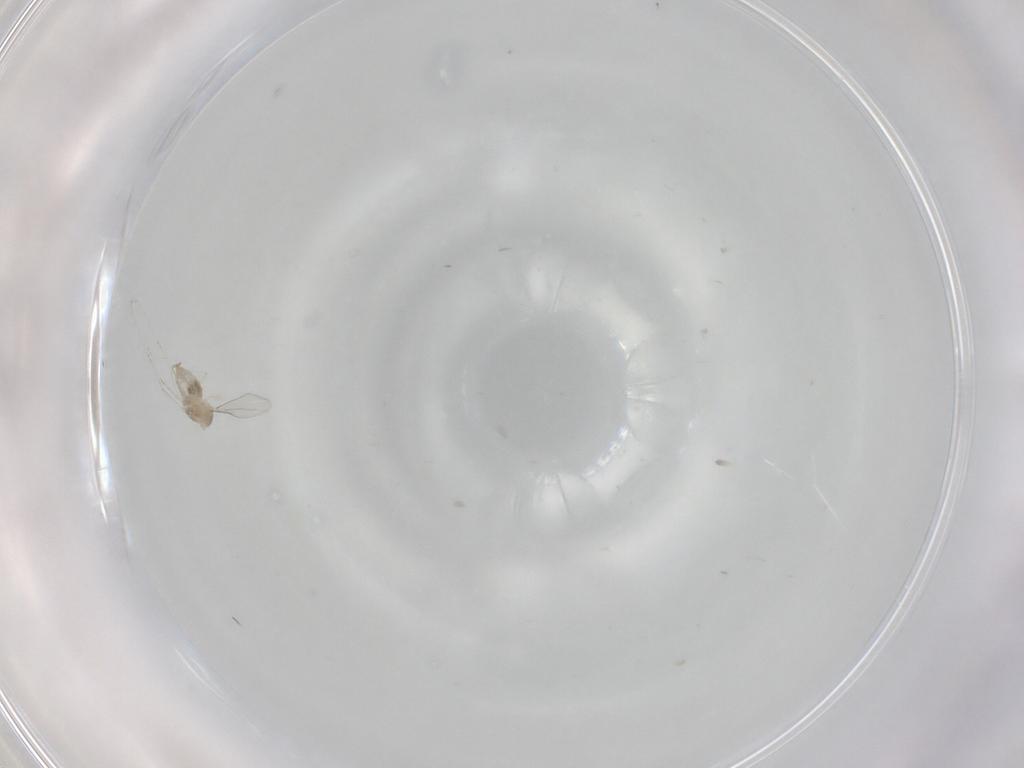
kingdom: Animalia
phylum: Arthropoda
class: Insecta
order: Diptera
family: Cecidomyiidae
